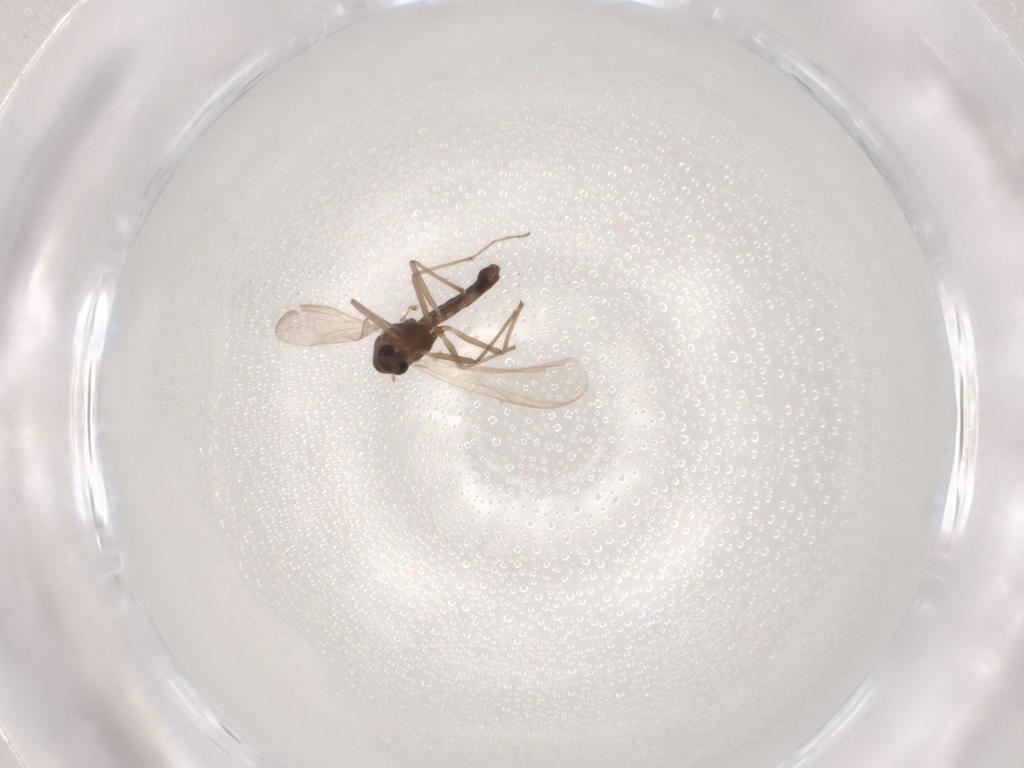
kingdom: Animalia
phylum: Arthropoda
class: Insecta
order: Diptera
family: Chironomidae
